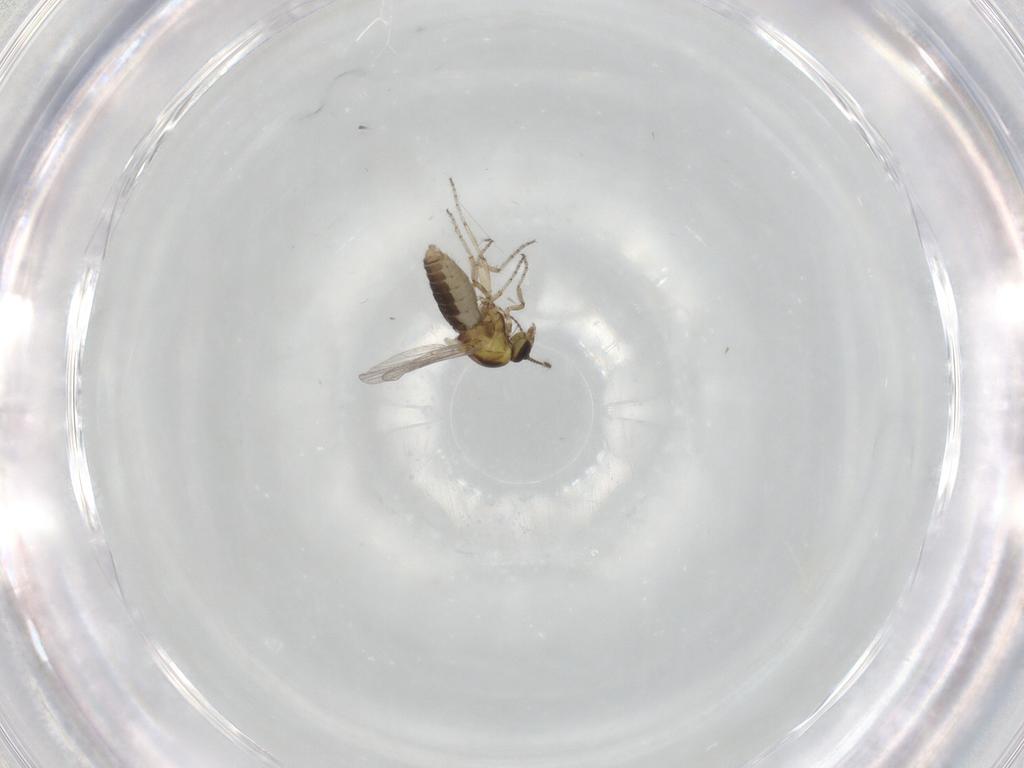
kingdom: Animalia
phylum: Arthropoda
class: Insecta
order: Diptera
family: Ceratopogonidae
